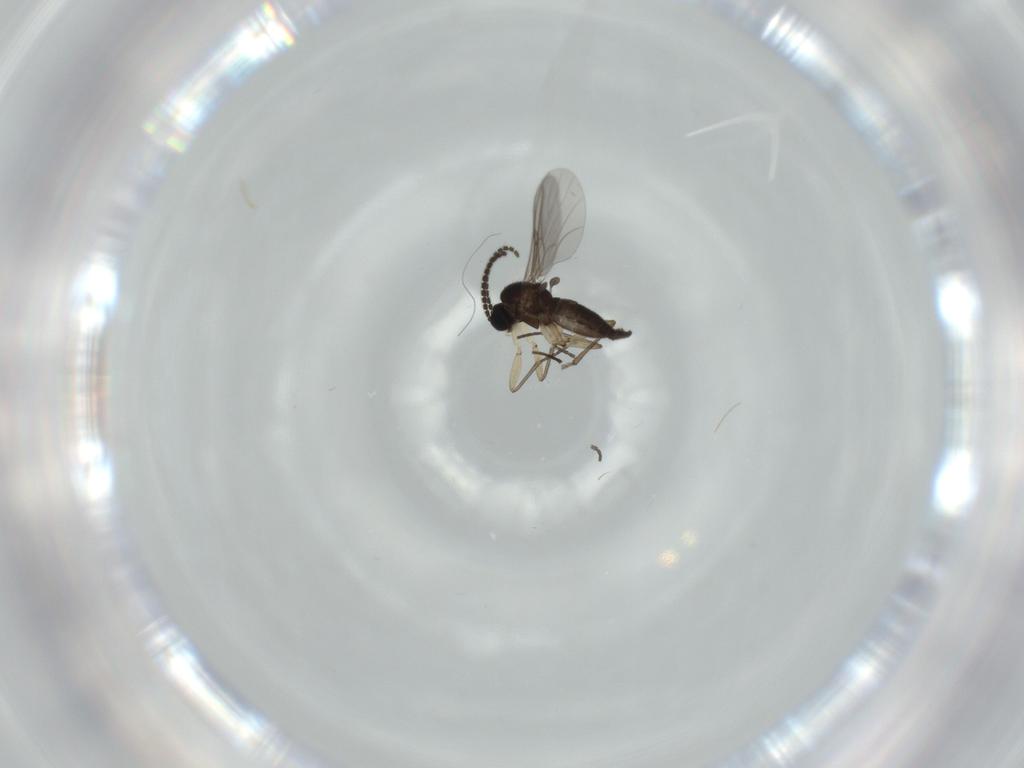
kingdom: Animalia
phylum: Arthropoda
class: Insecta
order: Diptera
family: Sciaridae
